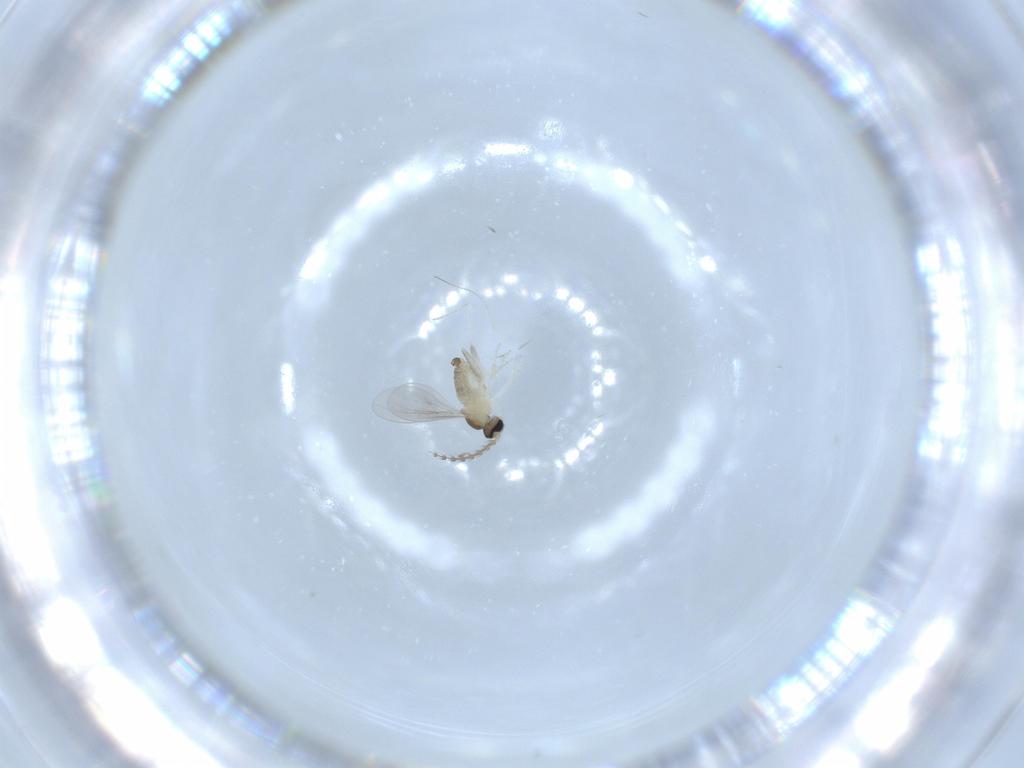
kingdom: Animalia
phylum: Arthropoda
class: Insecta
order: Diptera
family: Cecidomyiidae
